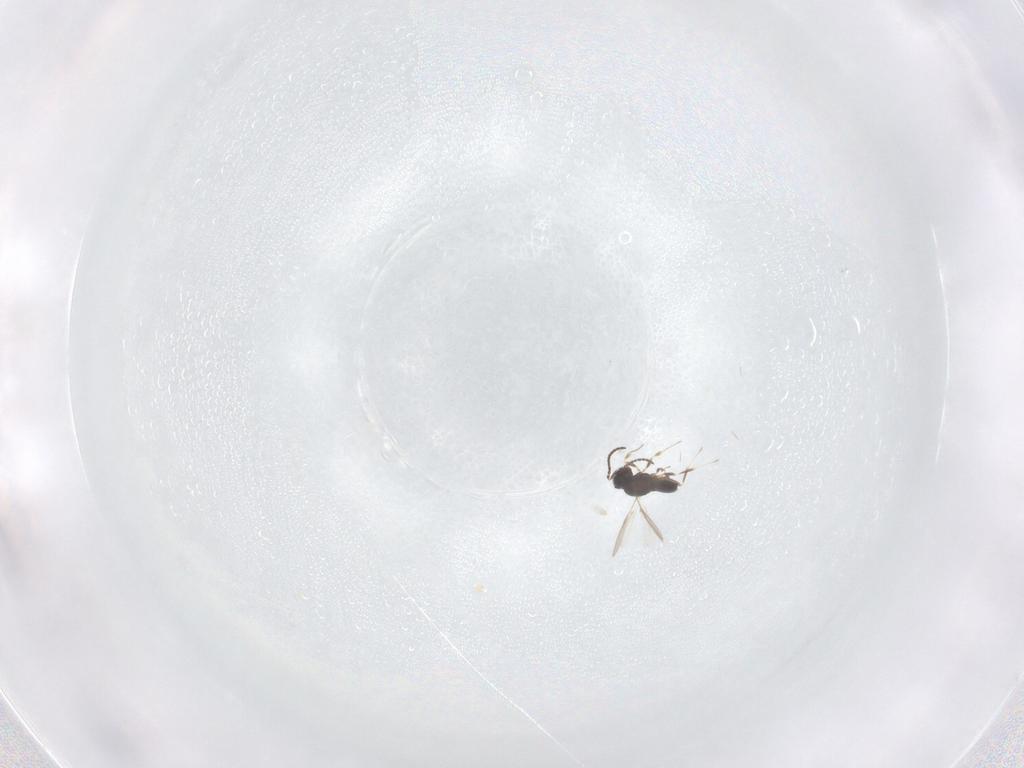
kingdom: Animalia
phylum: Arthropoda
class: Insecta
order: Hymenoptera
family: Scelionidae
